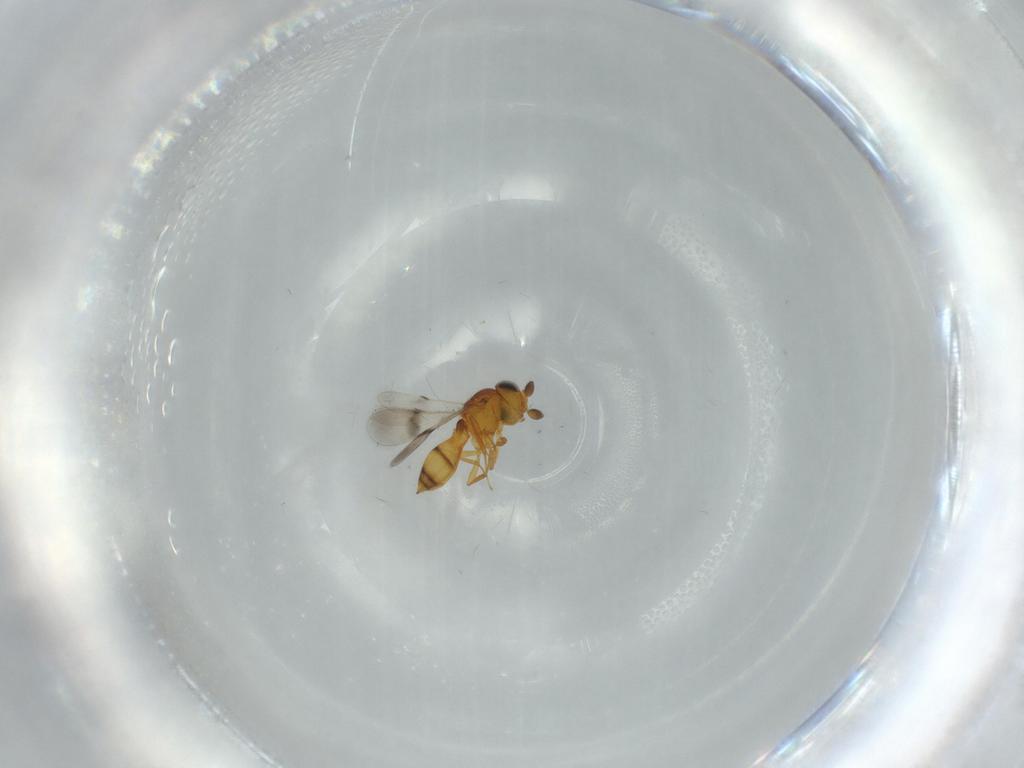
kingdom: Animalia
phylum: Arthropoda
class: Insecta
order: Hymenoptera
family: Scelionidae
